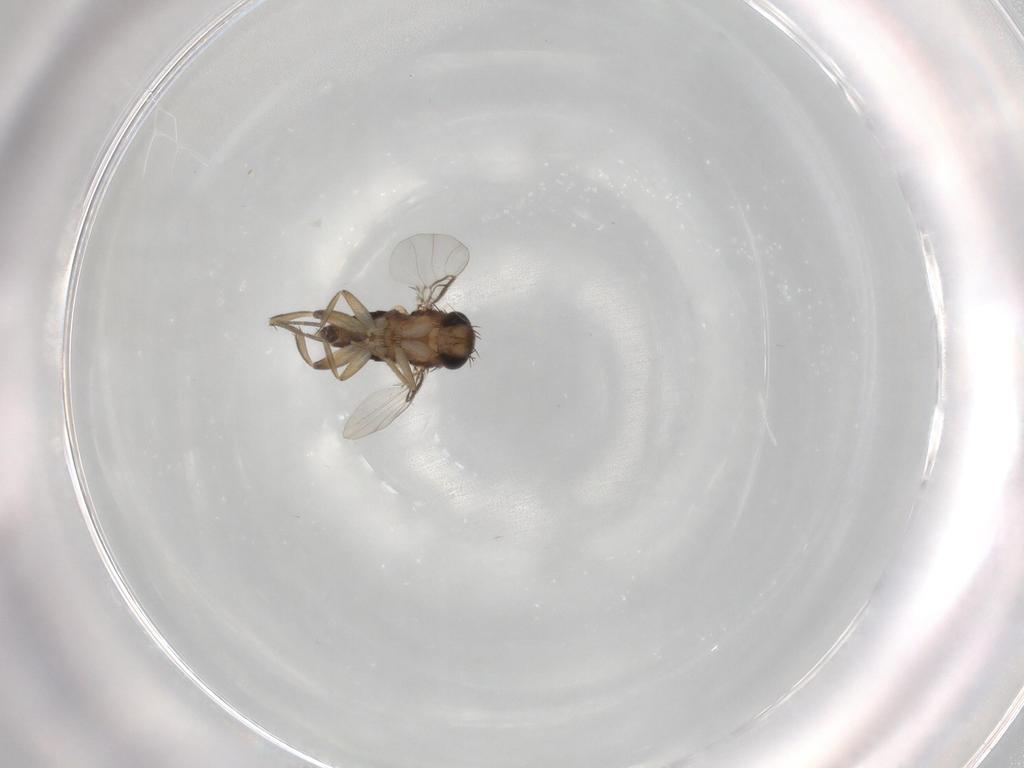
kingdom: Animalia
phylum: Arthropoda
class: Insecta
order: Diptera
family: Phoridae
